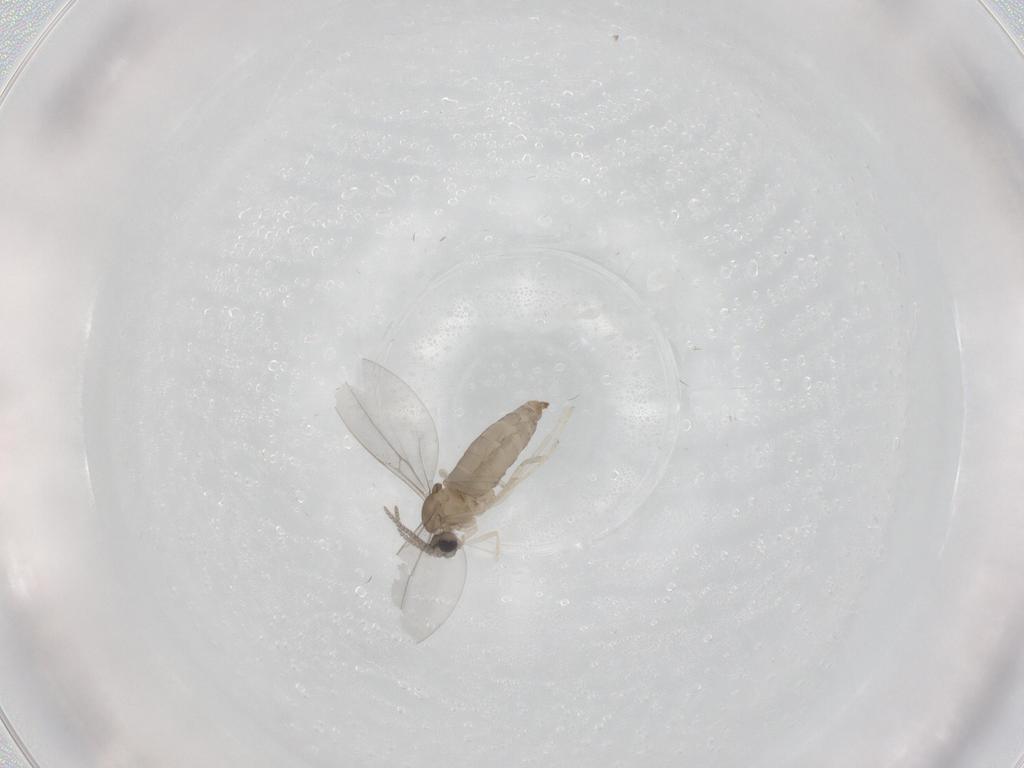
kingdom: Animalia
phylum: Arthropoda
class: Insecta
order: Diptera
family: Cecidomyiidae
